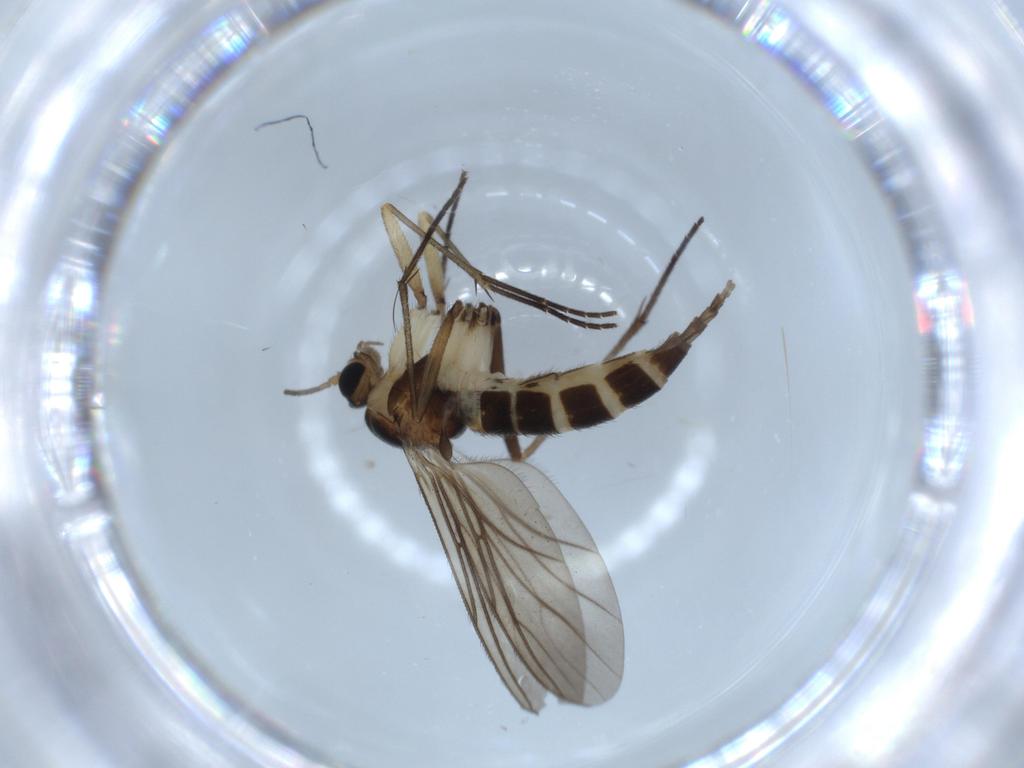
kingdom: Animalia
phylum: Arthropoda
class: Insecta
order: Diptera
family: Sciaridae
